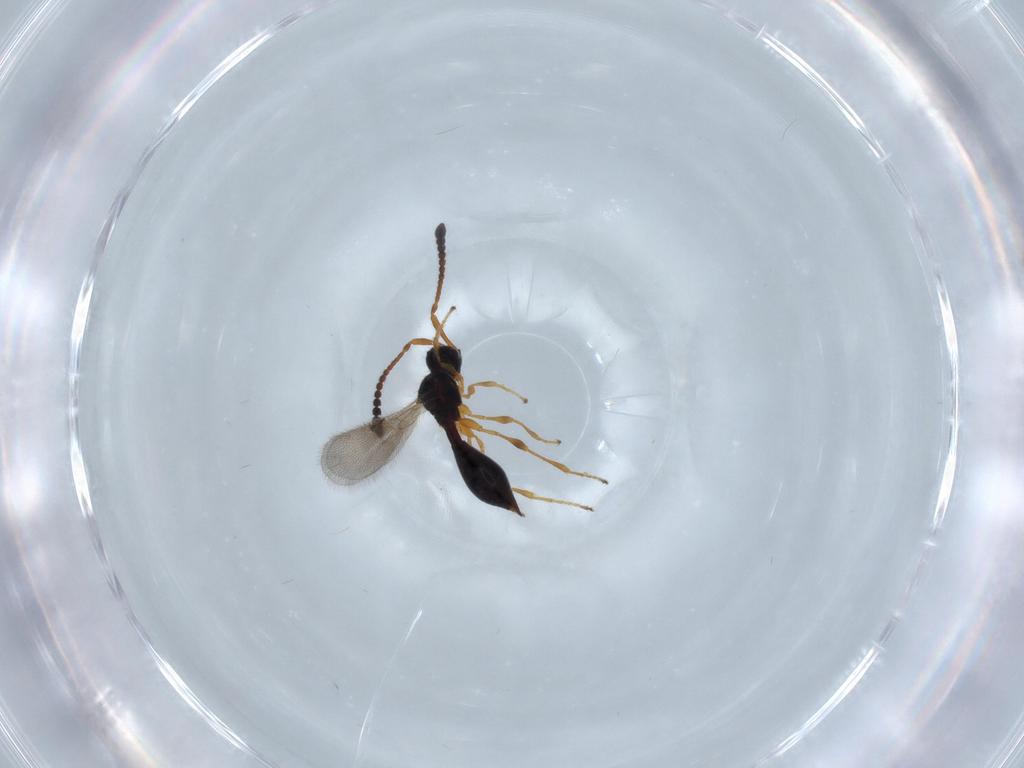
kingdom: Animalia
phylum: Arthropoda
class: Insecta
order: Hymenoptera
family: Diapriidae
